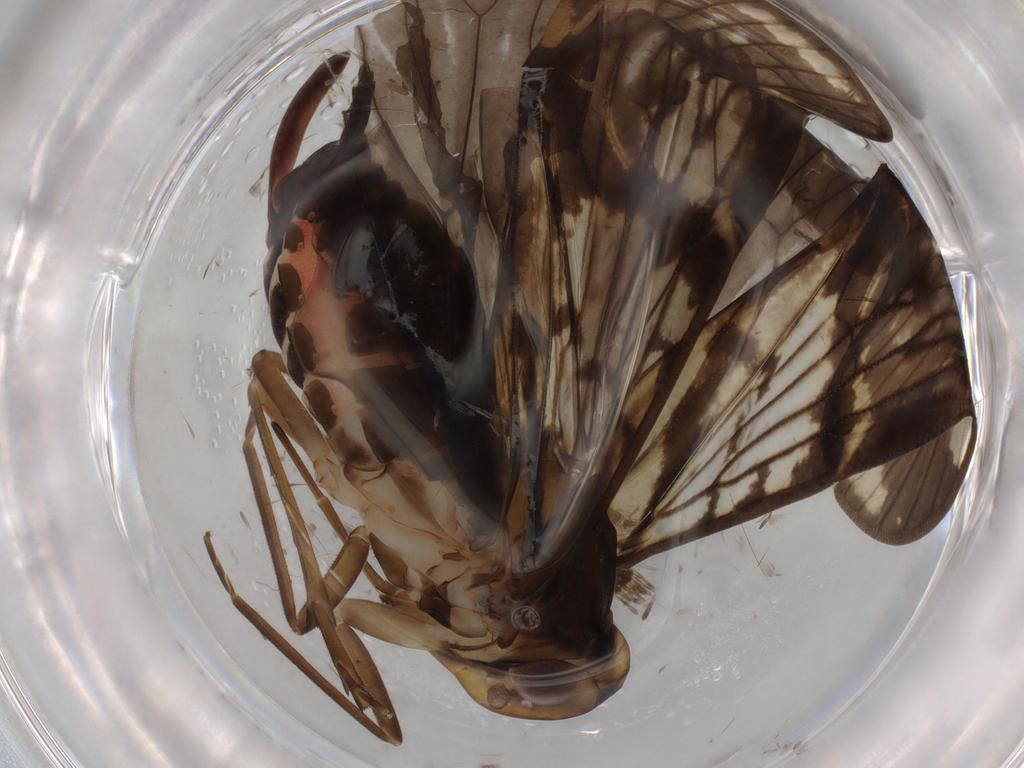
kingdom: Animalia
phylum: Arthropoda
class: Insecta
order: Hemiptera
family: Cixiidae
